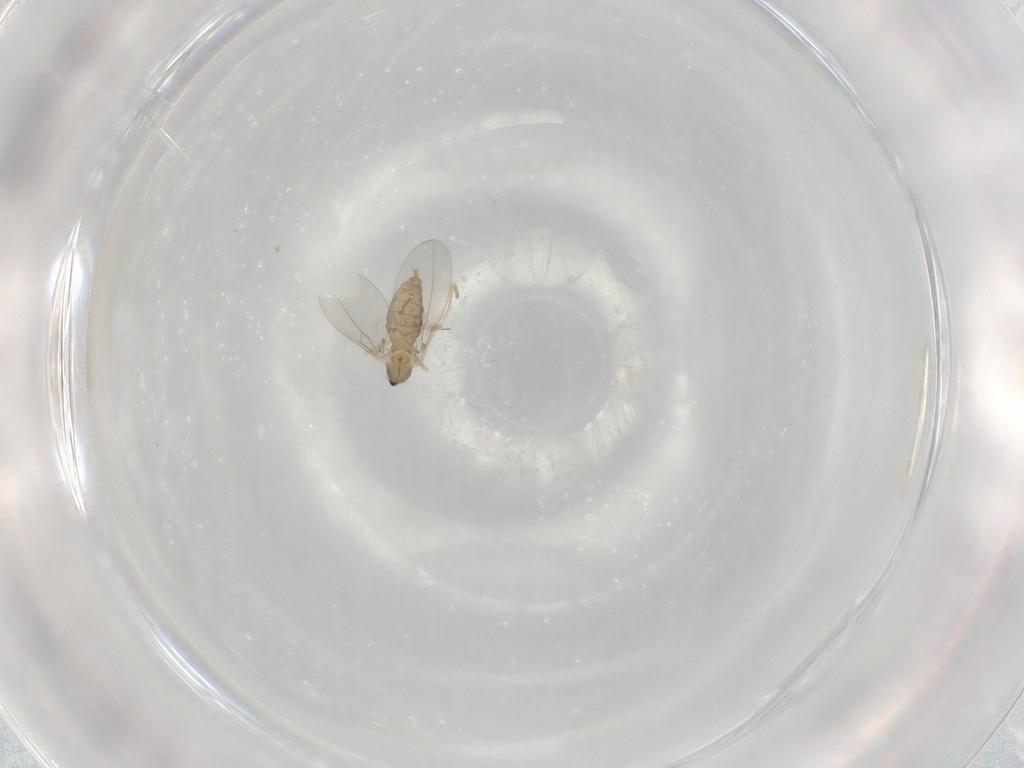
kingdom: Animalia
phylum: Arthropoda
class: Insecta
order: Diptera
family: Cecidomyiidae
